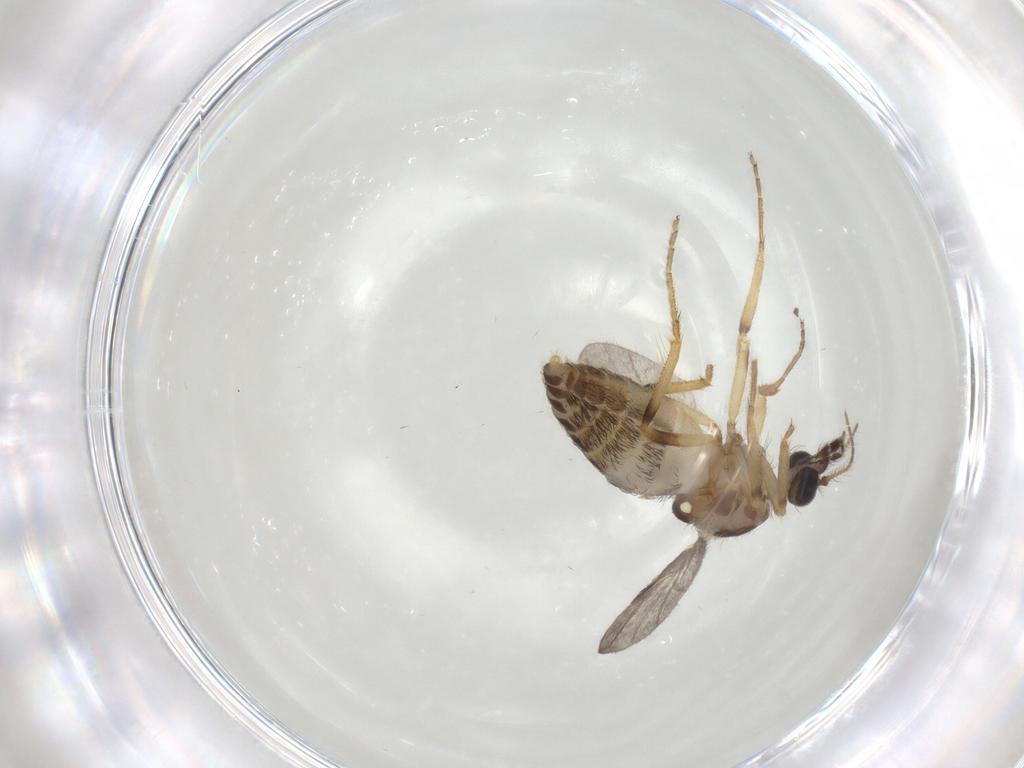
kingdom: Animalia
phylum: Arthropoda
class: Insecta
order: Diptera
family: Ceratopogonidae
